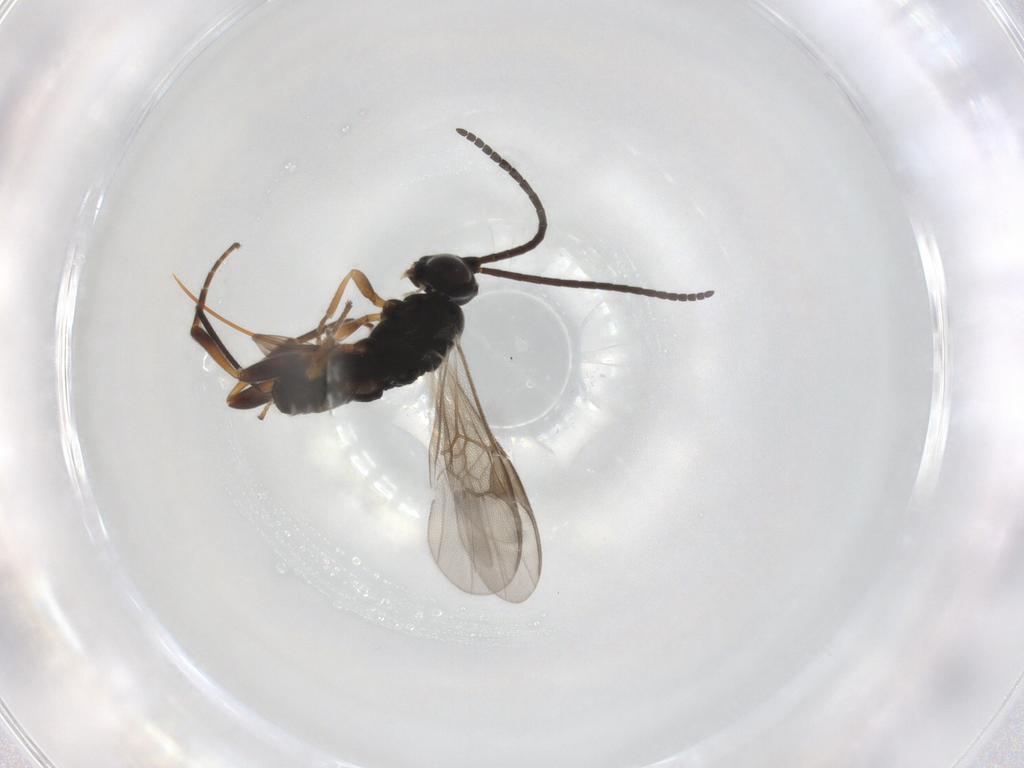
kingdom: Animalia
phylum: Arthropoda
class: Insecta
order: Hymenoptera
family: Braconidae
